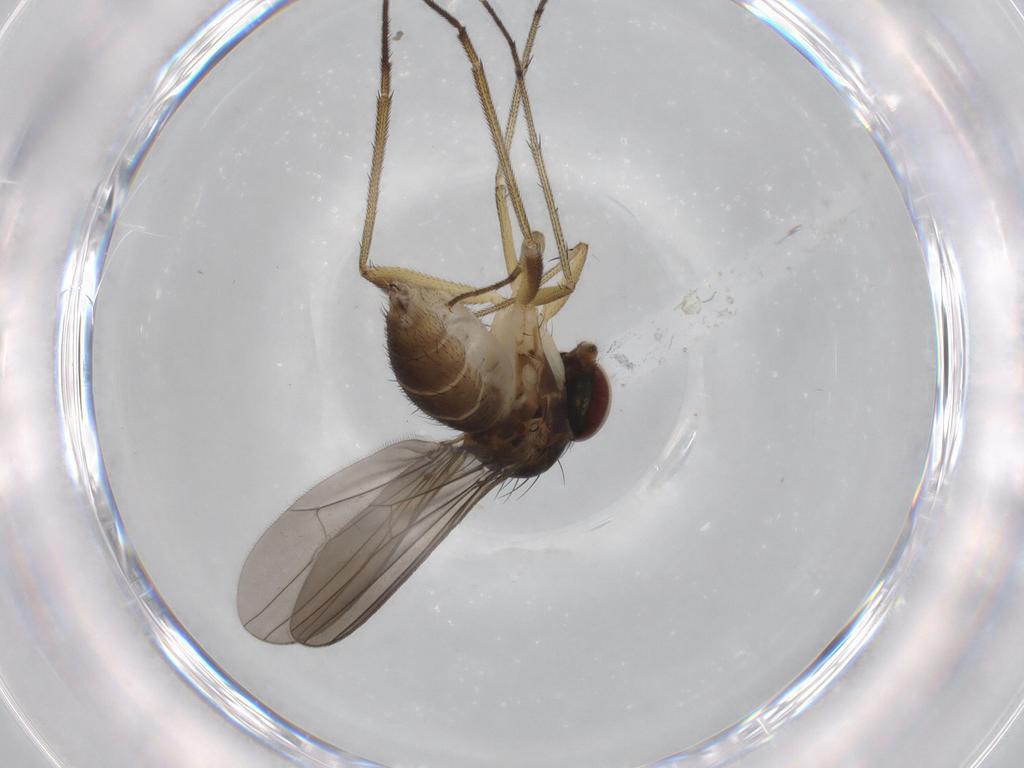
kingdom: Animalia
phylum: Arthropoda
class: Insecta
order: Diptera
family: Dolichopodidae
